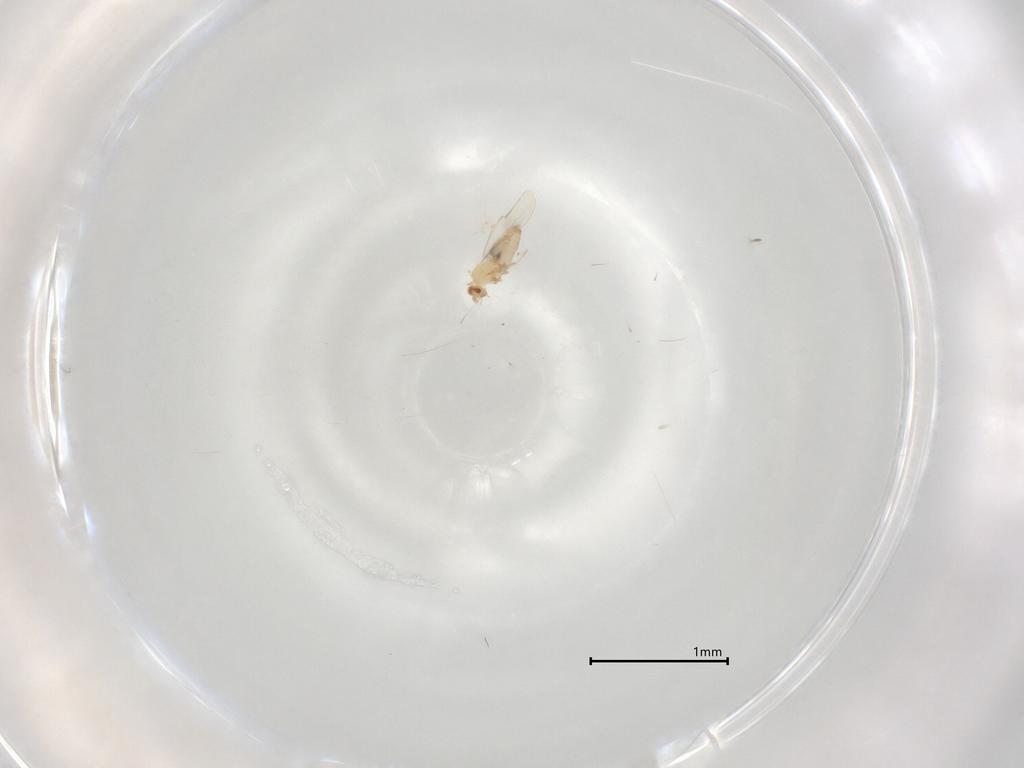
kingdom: Animalia
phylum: Arthropoda
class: Insecta
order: Diptera
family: Cecidomyiidae
